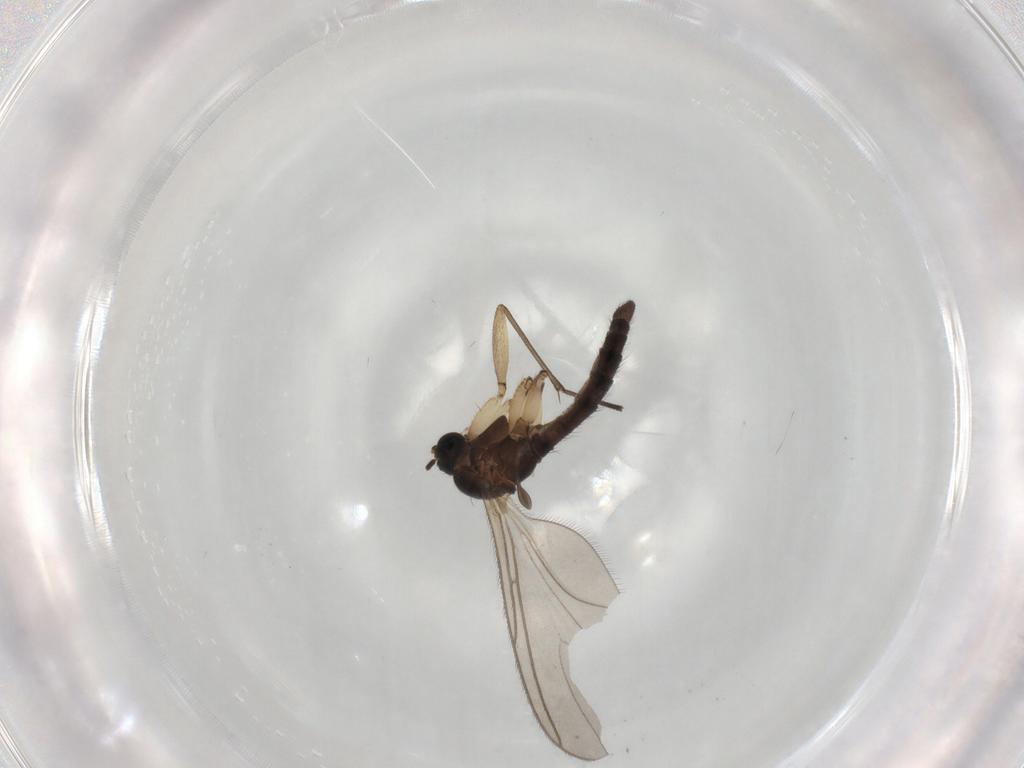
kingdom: Animalia
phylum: Arthropoda
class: Insecta
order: Diptera
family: Sciaridae
